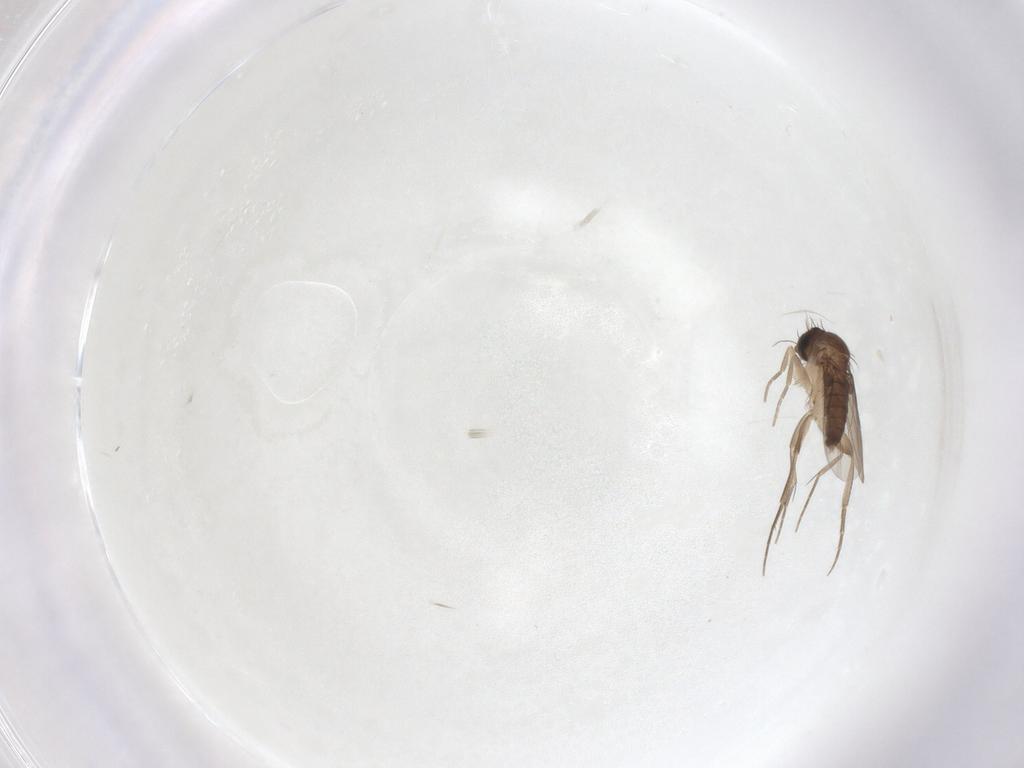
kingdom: Animalia
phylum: Arthropoda
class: Insecta
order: Diptera
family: Phoridae
